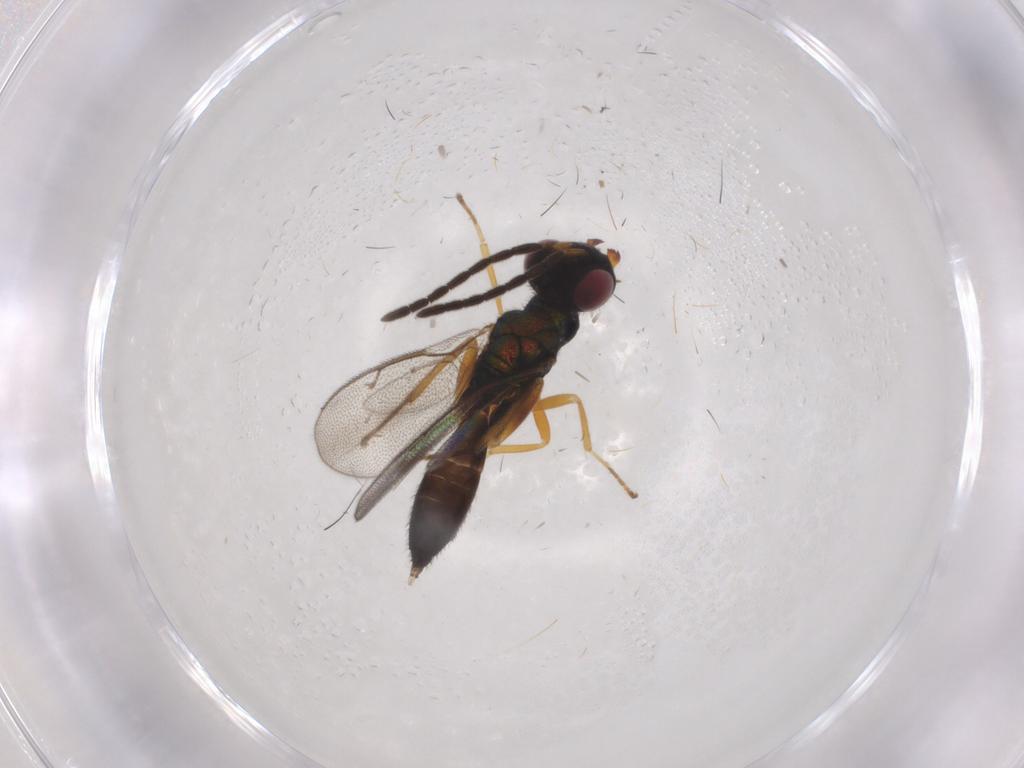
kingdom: Animalia
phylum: Arthropoda
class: Insecta
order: Hymenoptera
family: Pteromalidae
